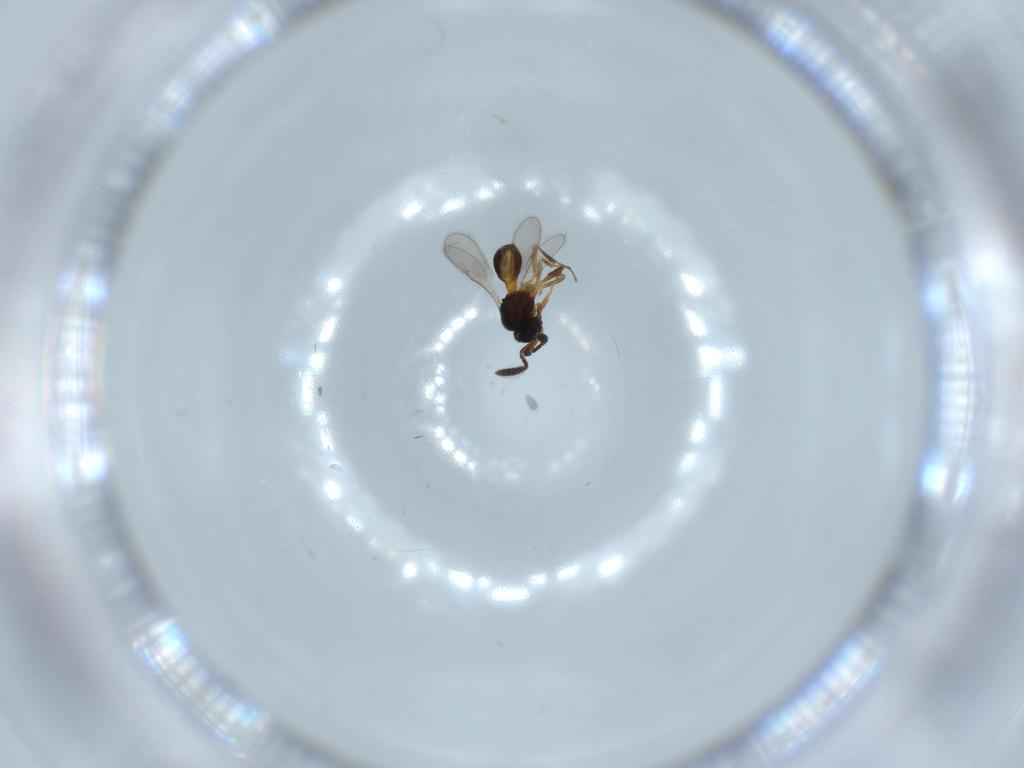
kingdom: Animalia
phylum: Arthropoda
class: Insecta
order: Hymenoptera
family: Scelionidae
